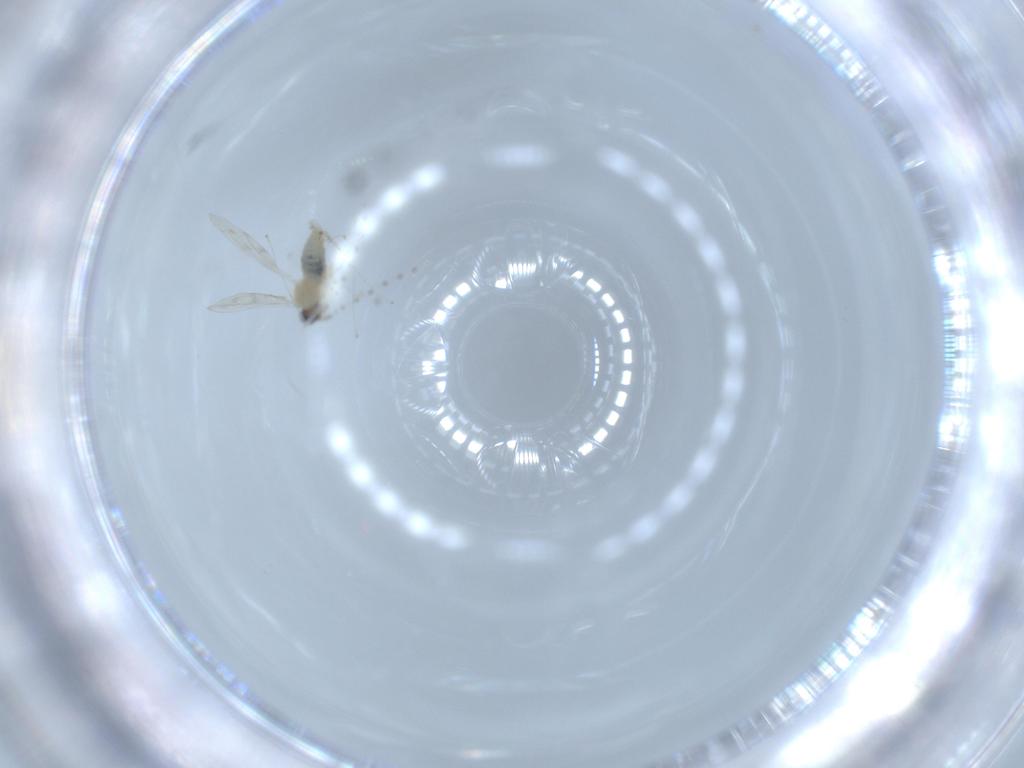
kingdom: Animalia
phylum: Arthropoda
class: Insecta
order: Diptera
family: Cecidomyiidae
